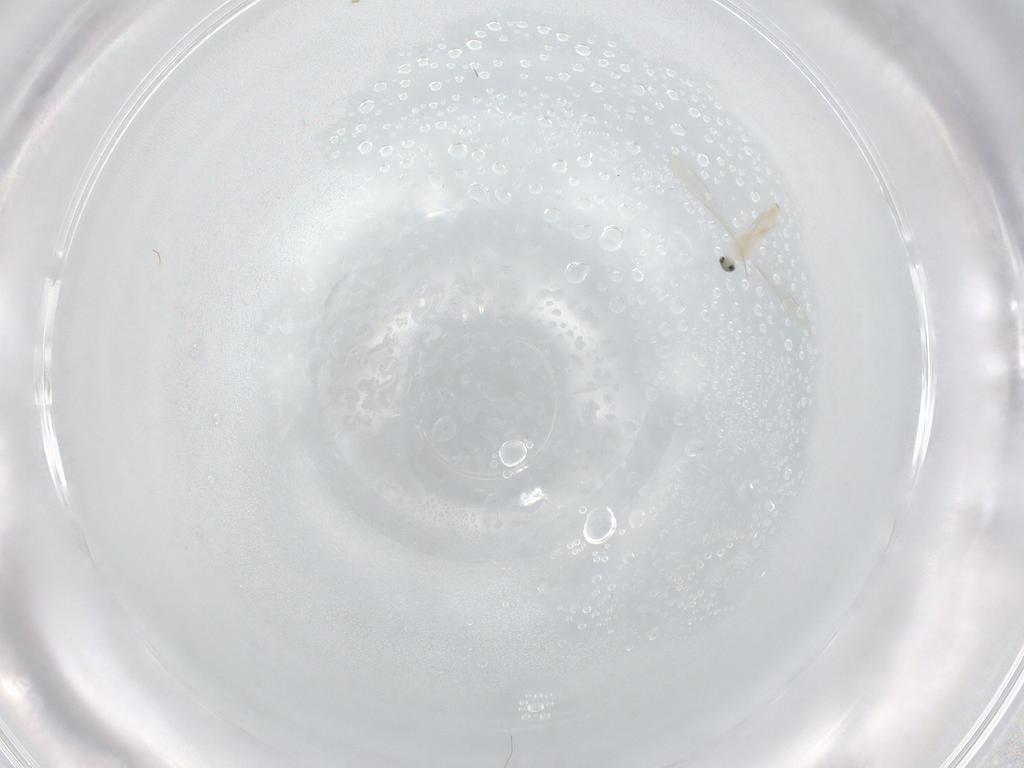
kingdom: Animalia
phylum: Arthropoda
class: Insecta
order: Diptera
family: Cecidomyiidae
